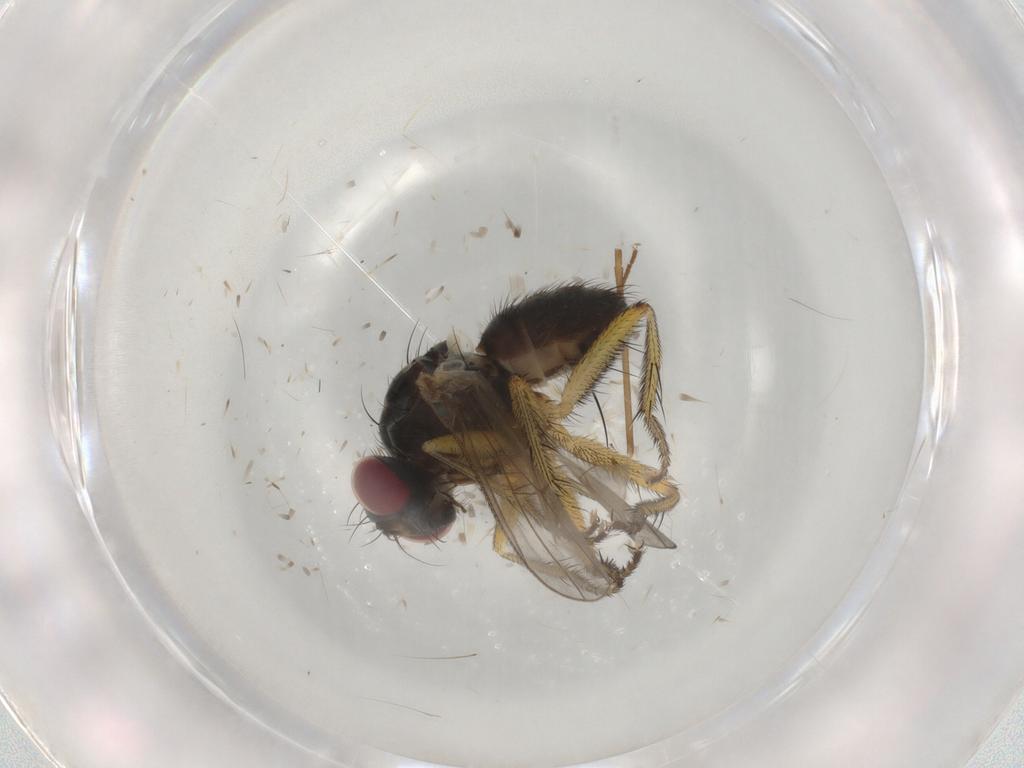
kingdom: Animalia
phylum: Arthropoda
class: Insecta
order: Diptera
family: Muscidae
